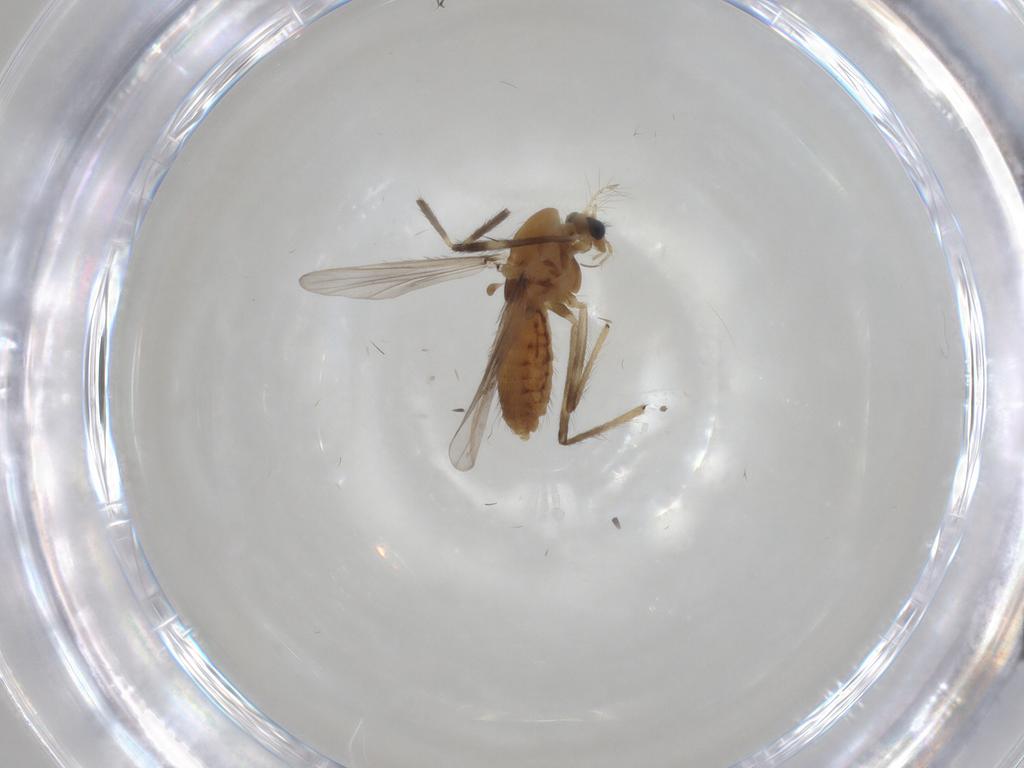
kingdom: Animalia
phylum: Arthropoda
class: Insecta
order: Diptera
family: Chironomidae
